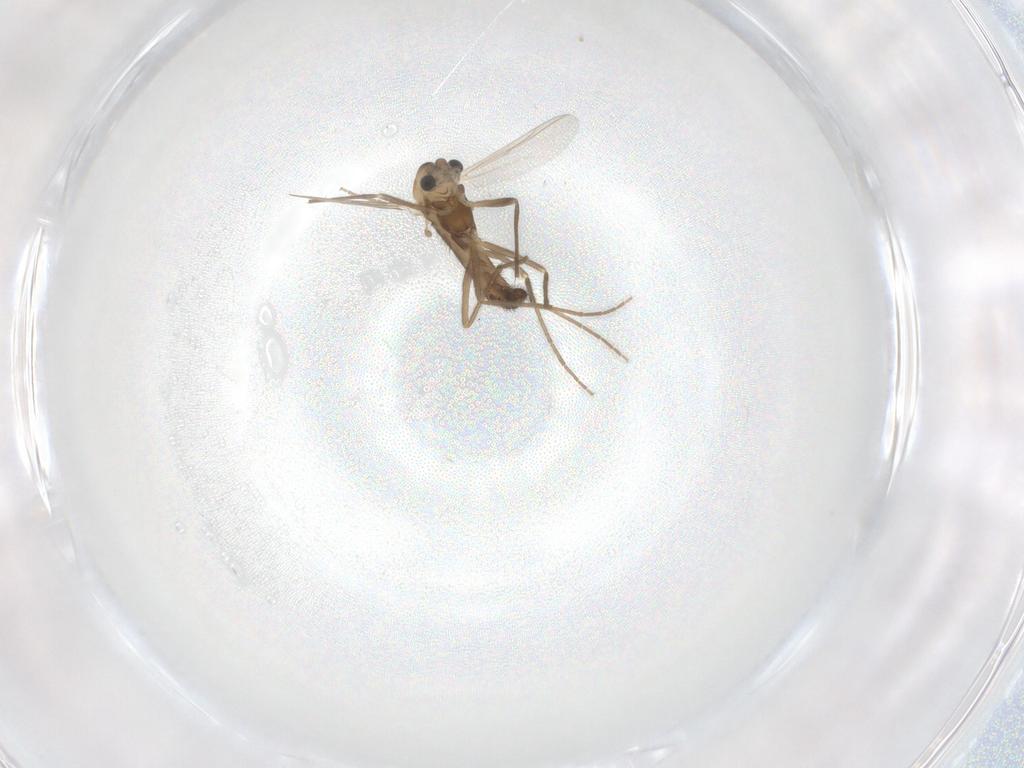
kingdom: Animalia
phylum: Arthropoda
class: Insecta
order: Diptera
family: Chironomidae
